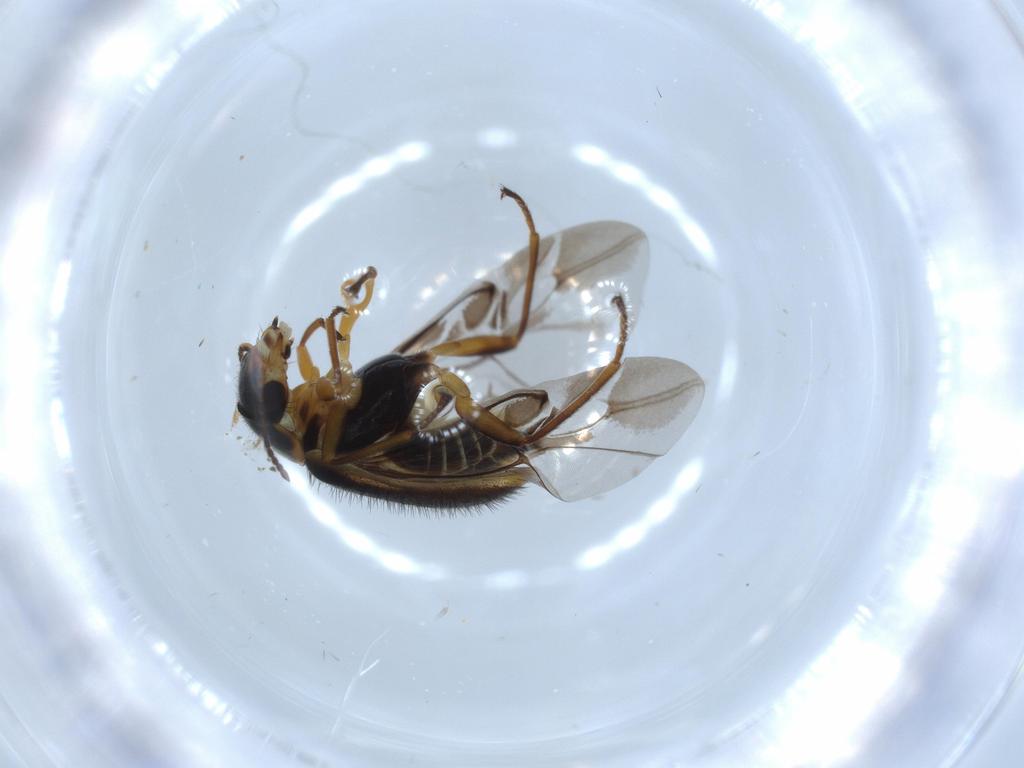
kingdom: Animalia
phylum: Arthropoda
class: Insecta
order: Coleoptera
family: Melyridae
